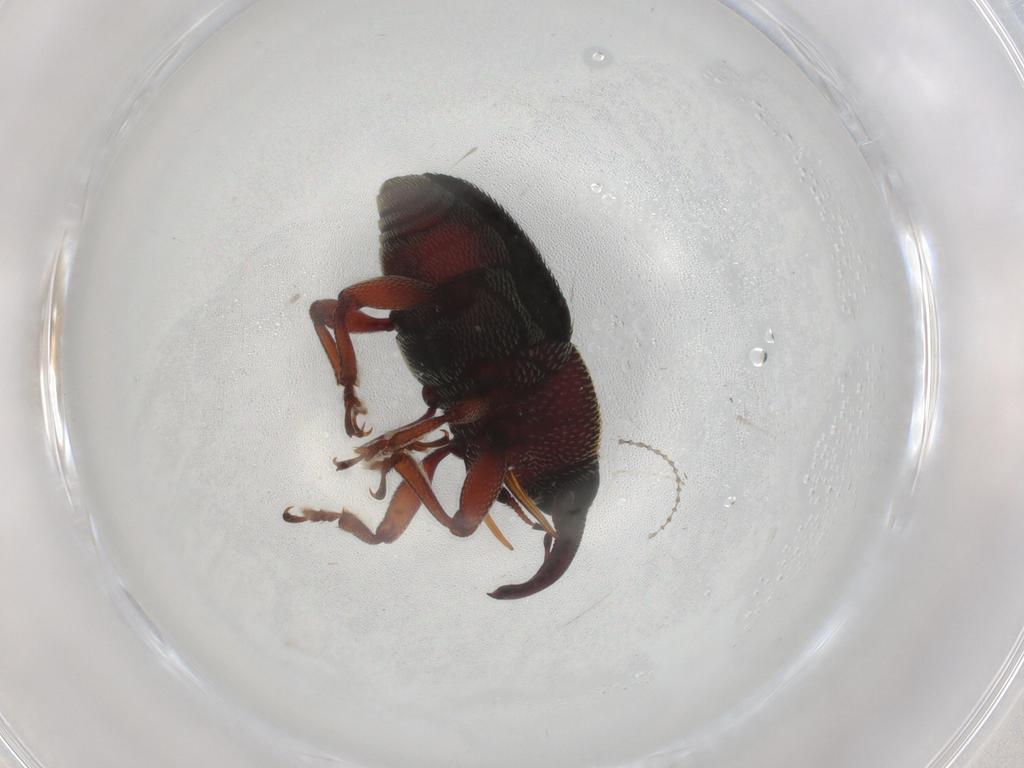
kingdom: Animalia
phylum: Arthropoda
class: Insecta
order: Coleoptera
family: Curculionidae
